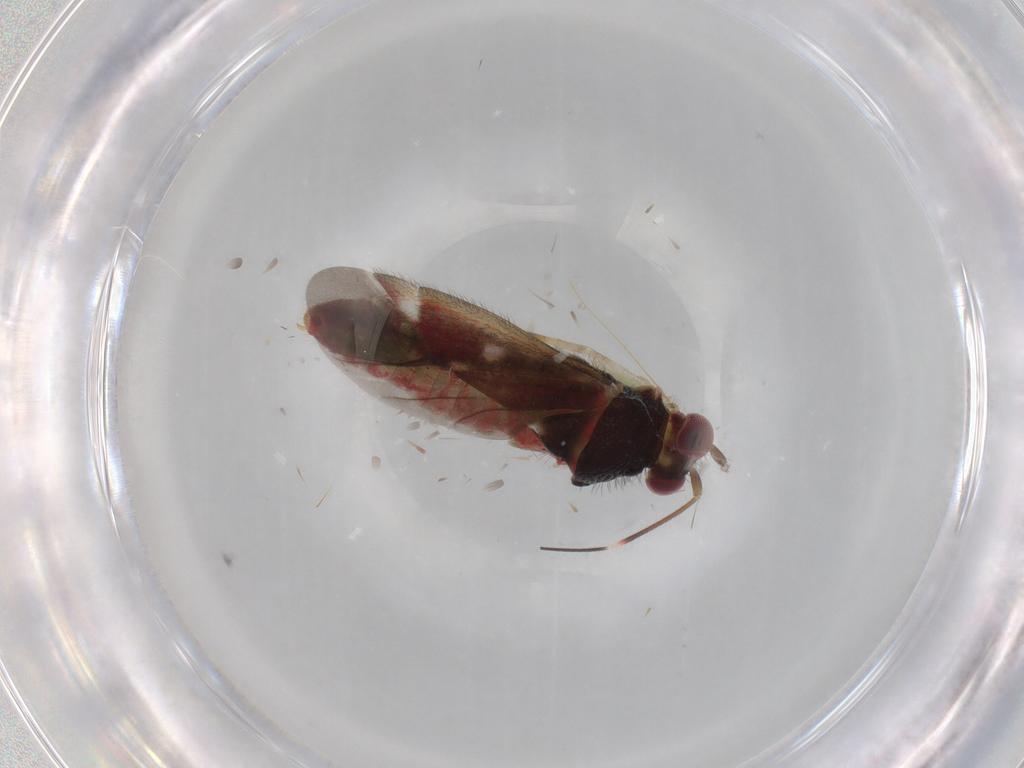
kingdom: Animalia
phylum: Arthropoda
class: Insecta
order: Hemiptera
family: Miridae
